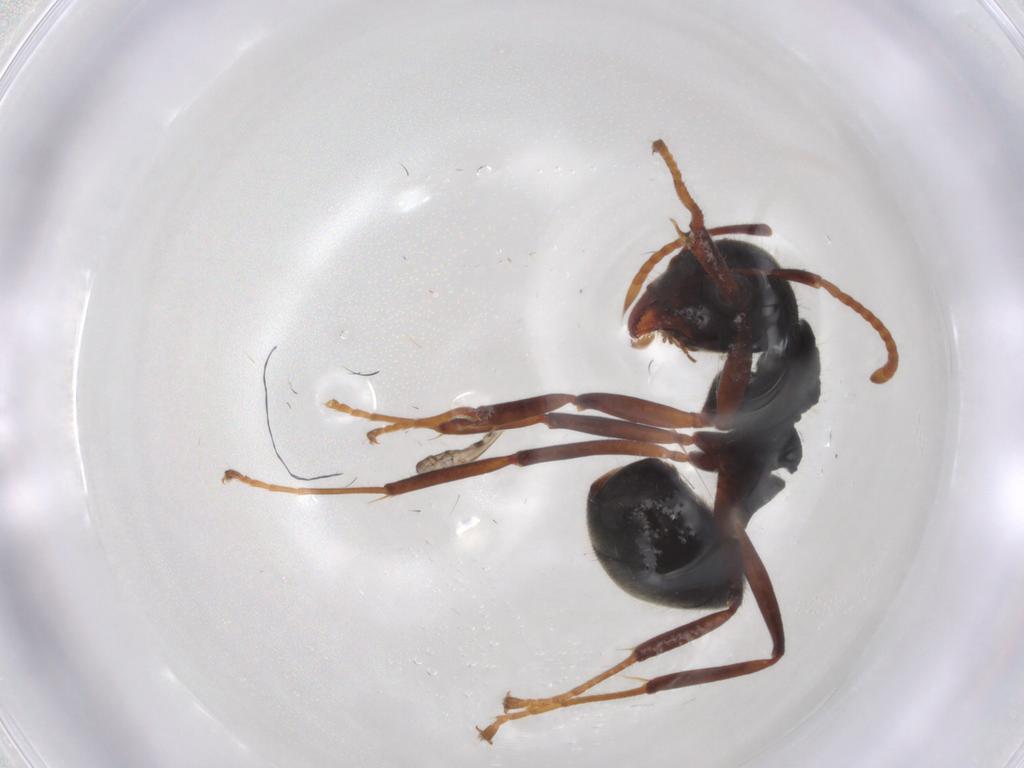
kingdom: Animalia
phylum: Arthropoda
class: Insecta
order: Hymenoptera
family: Formicidae
